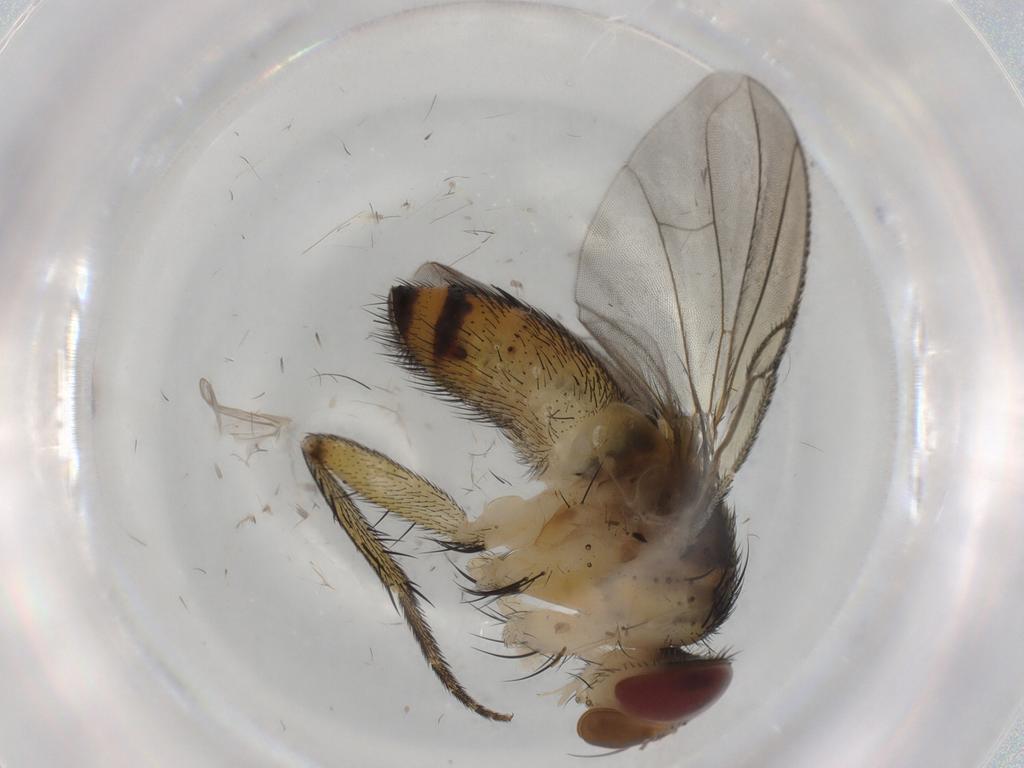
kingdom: Animalia
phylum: Arthropoda
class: Insecta
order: Diptera
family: Tachinidae
